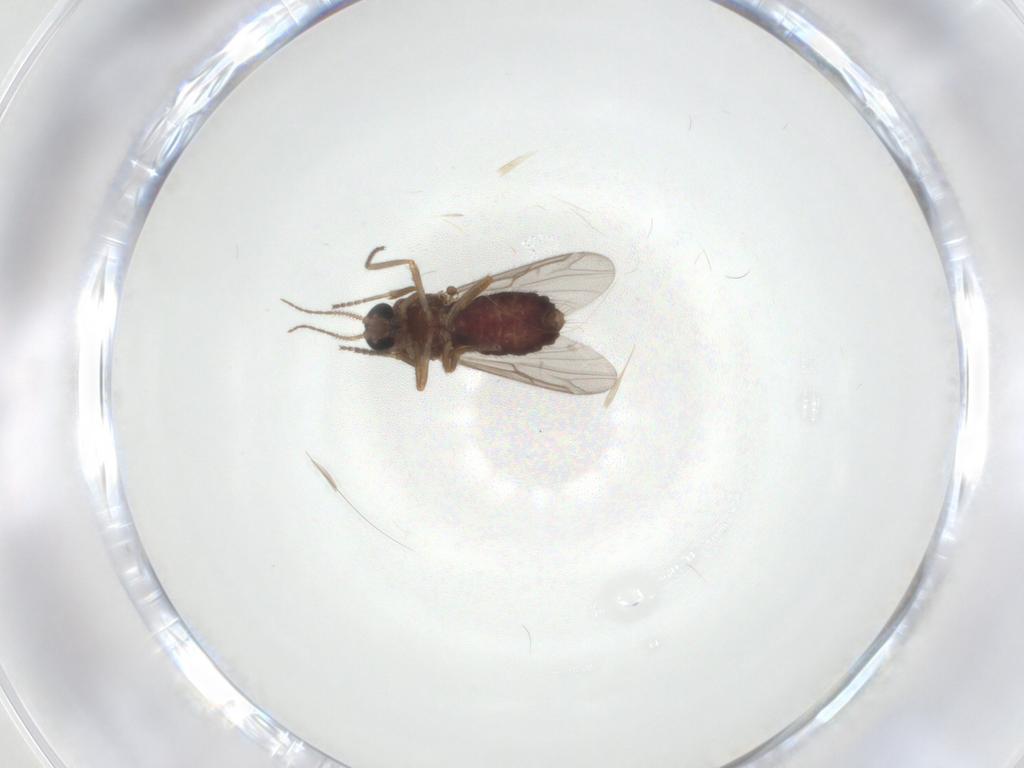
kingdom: Animalia
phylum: Arthropoda
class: Insecta
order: Diptera
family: Ceratopogonidae
